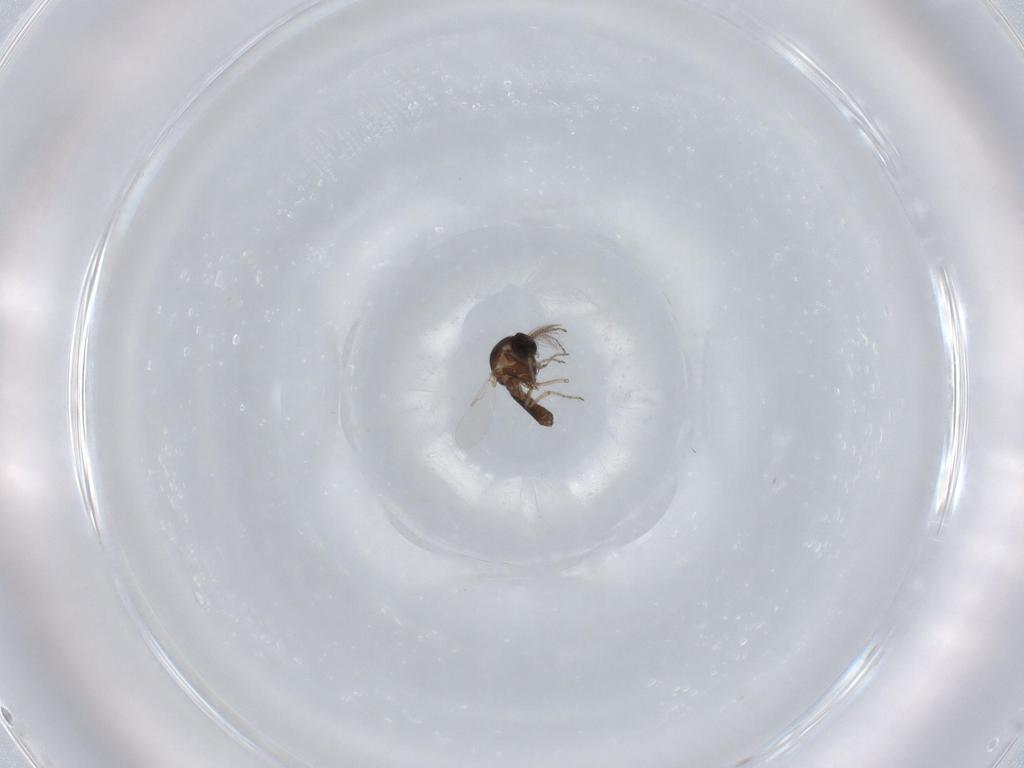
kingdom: Animalia
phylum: Arthropoda
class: Insecta
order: Diptera
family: Ceratopogonidae
